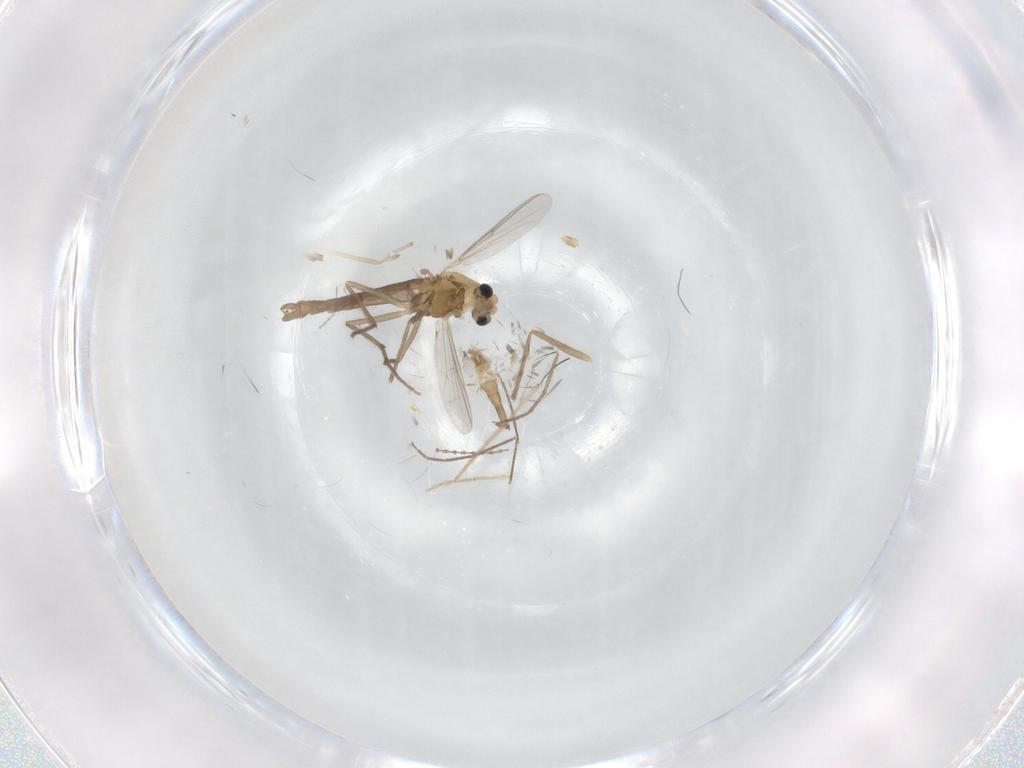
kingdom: Animalia
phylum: Arthropoda
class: Insecta
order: Diptera
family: Chironomidae
